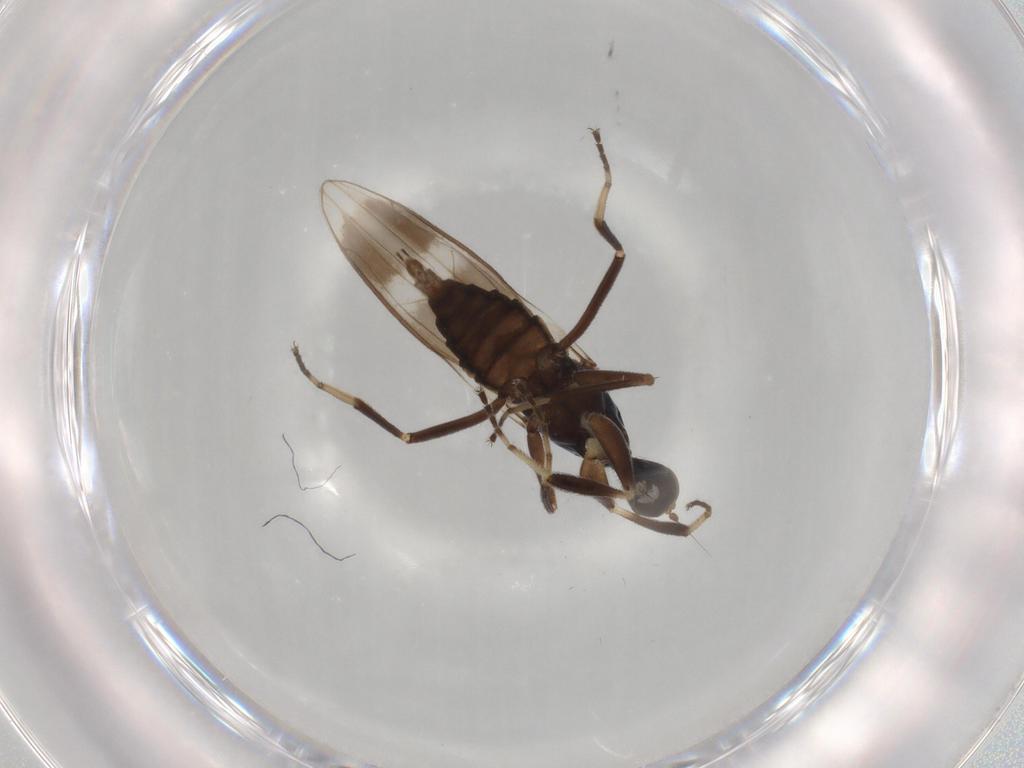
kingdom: Animalia
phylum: Arthropoda
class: Insecta
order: Diptera
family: Hybotidae
